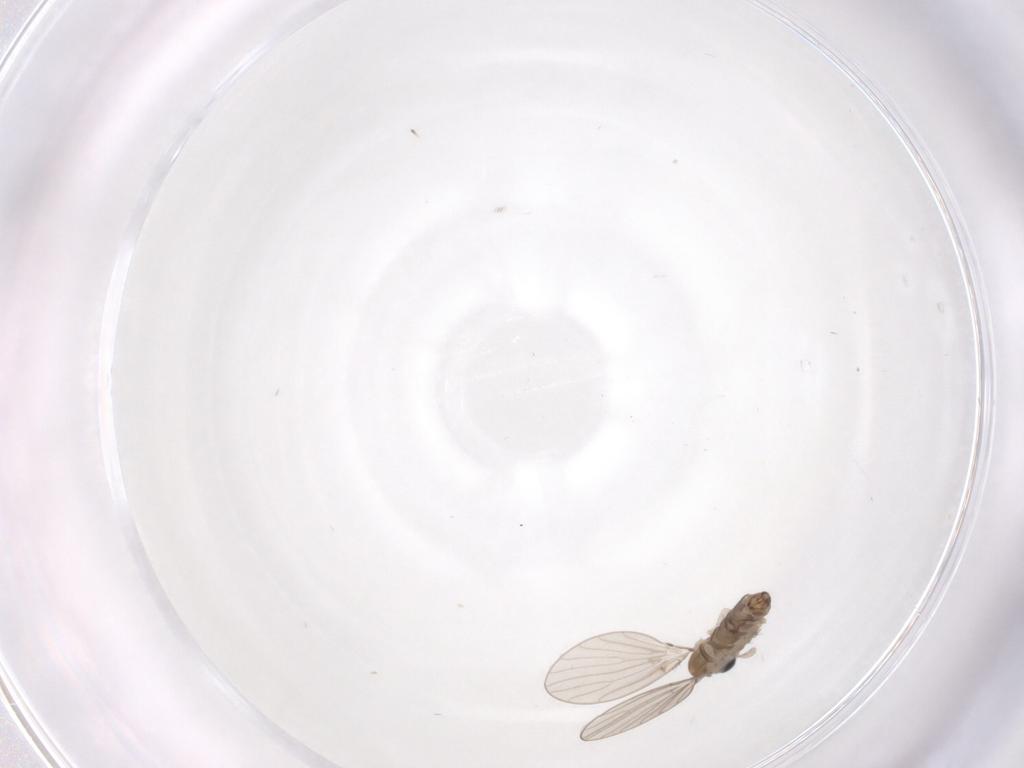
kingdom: Animalia
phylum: Arthropoda
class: Insecta
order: Diptera
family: Psychodidae
